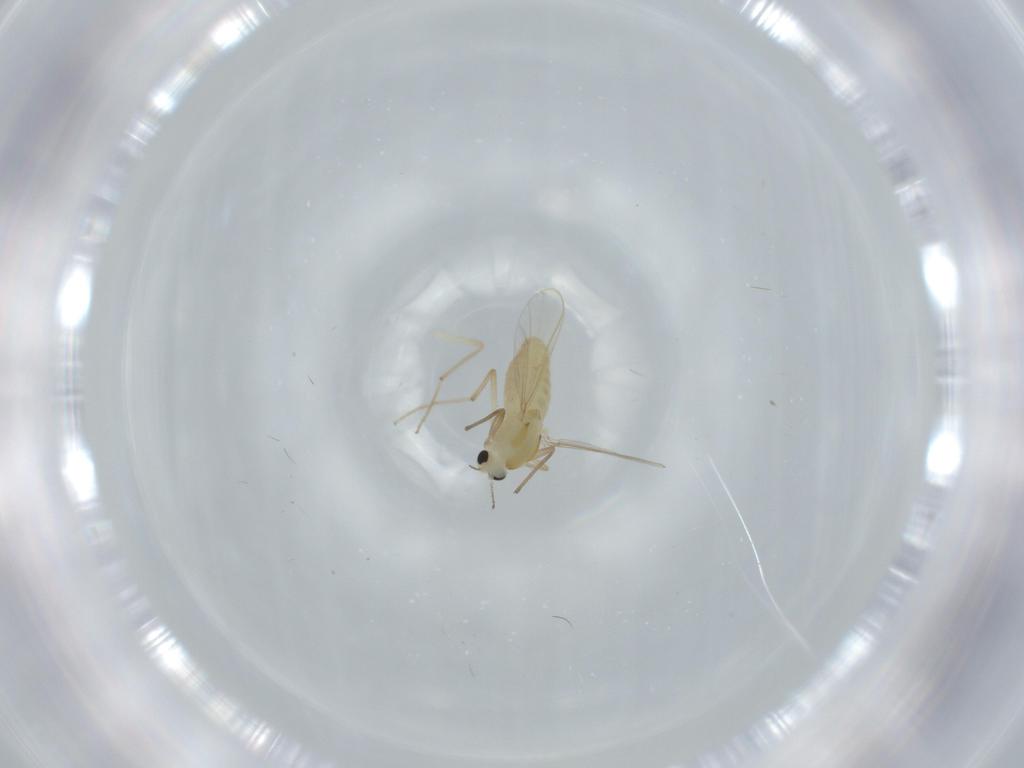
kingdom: Animalia
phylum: Arthropoda
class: Insecta
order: Diptera
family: Chironomidae
